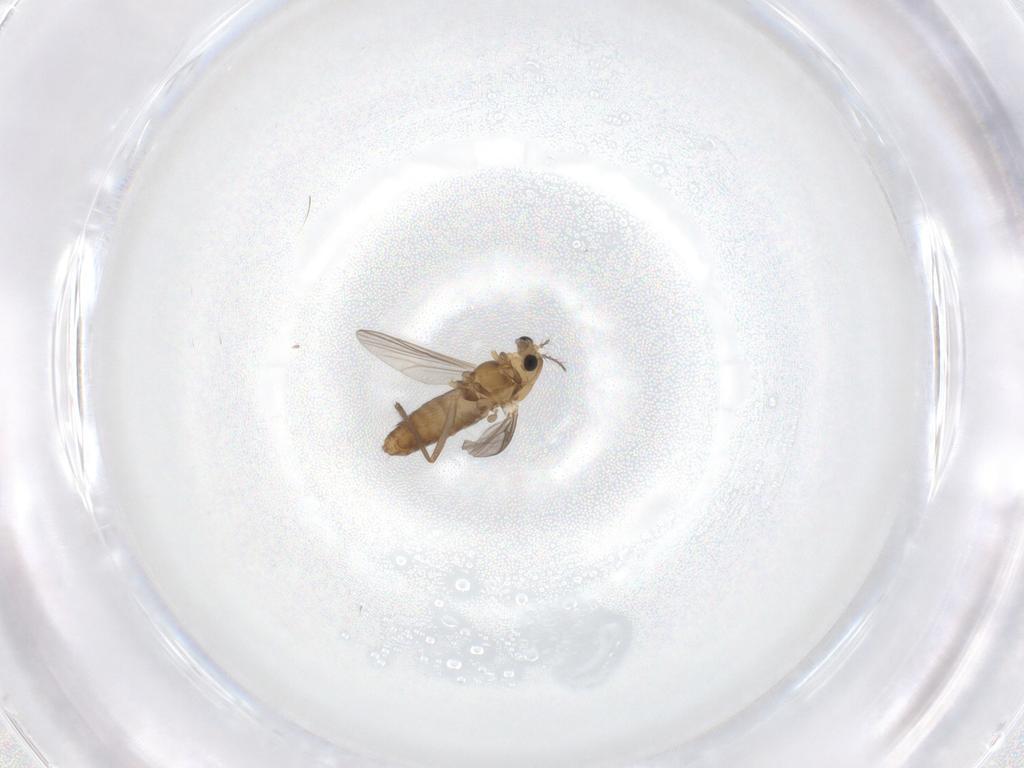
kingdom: Animalia
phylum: Arthropoda
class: Insecta
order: Diptera
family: Chironomidae
